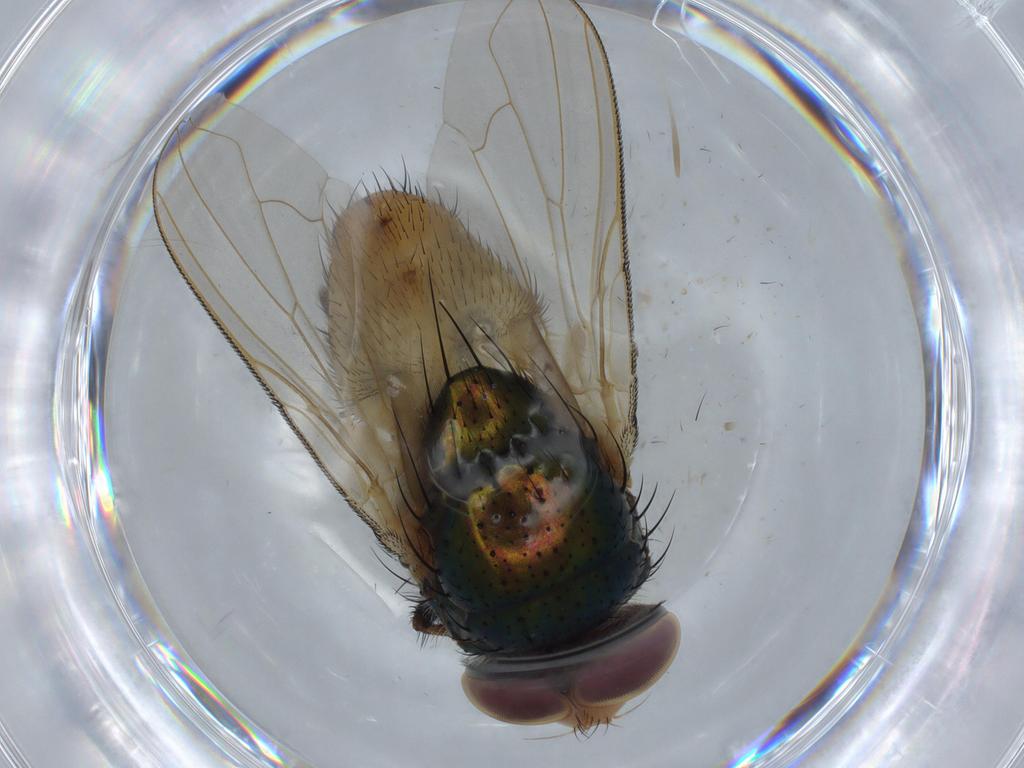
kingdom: Animalia
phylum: Arthropoda
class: Insecta
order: Diptera
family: Calliphoridae
